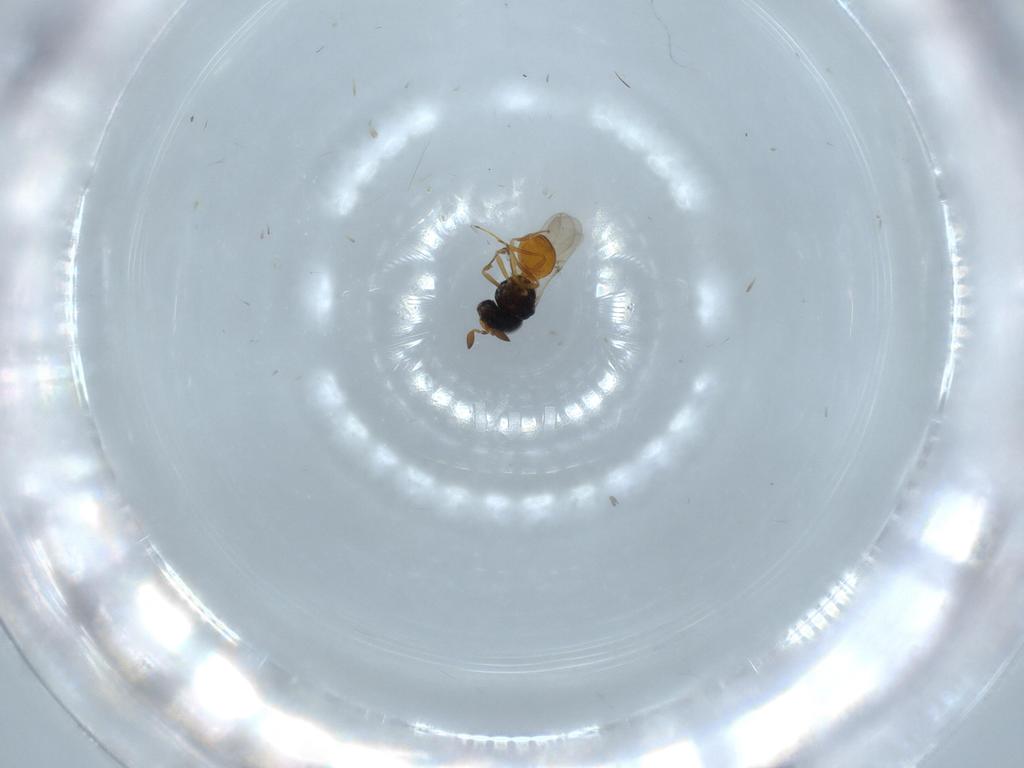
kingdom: Animalia
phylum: Arthropoda
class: Insecta
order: Hymenoptera
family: Scelionidae
